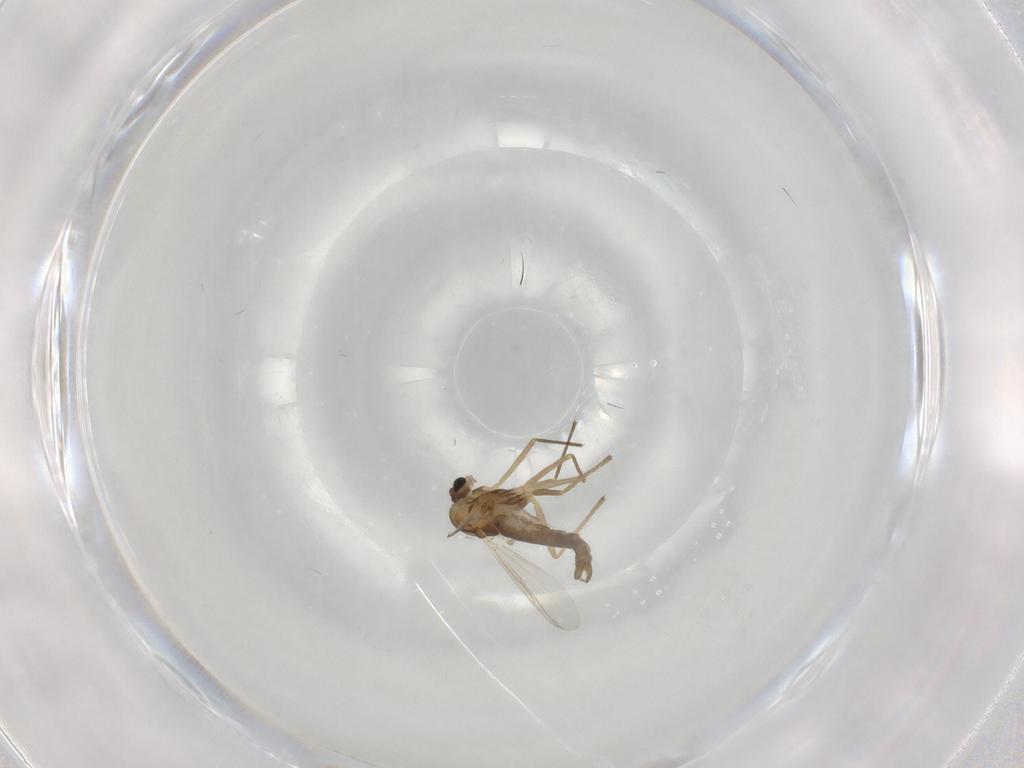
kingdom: Animalia
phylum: Arthropoda
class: Insecta
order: Diptera
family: Chironomidae
